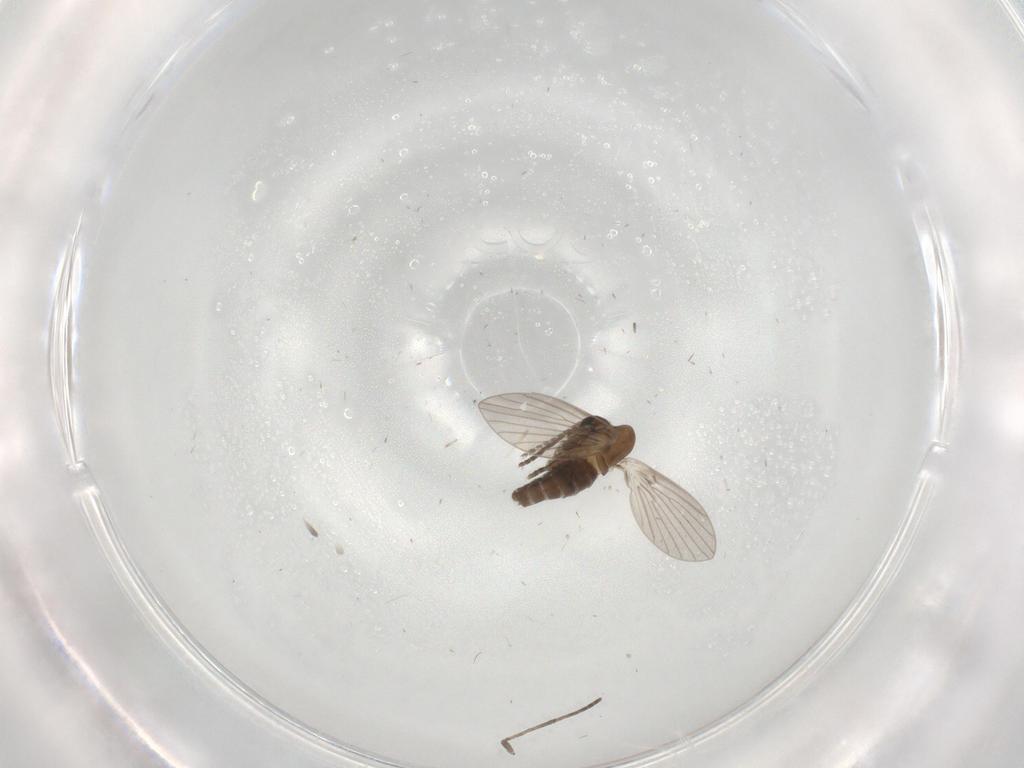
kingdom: Animalia
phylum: Arthropoda
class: Insecta
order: Diptera
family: Psychodidae
